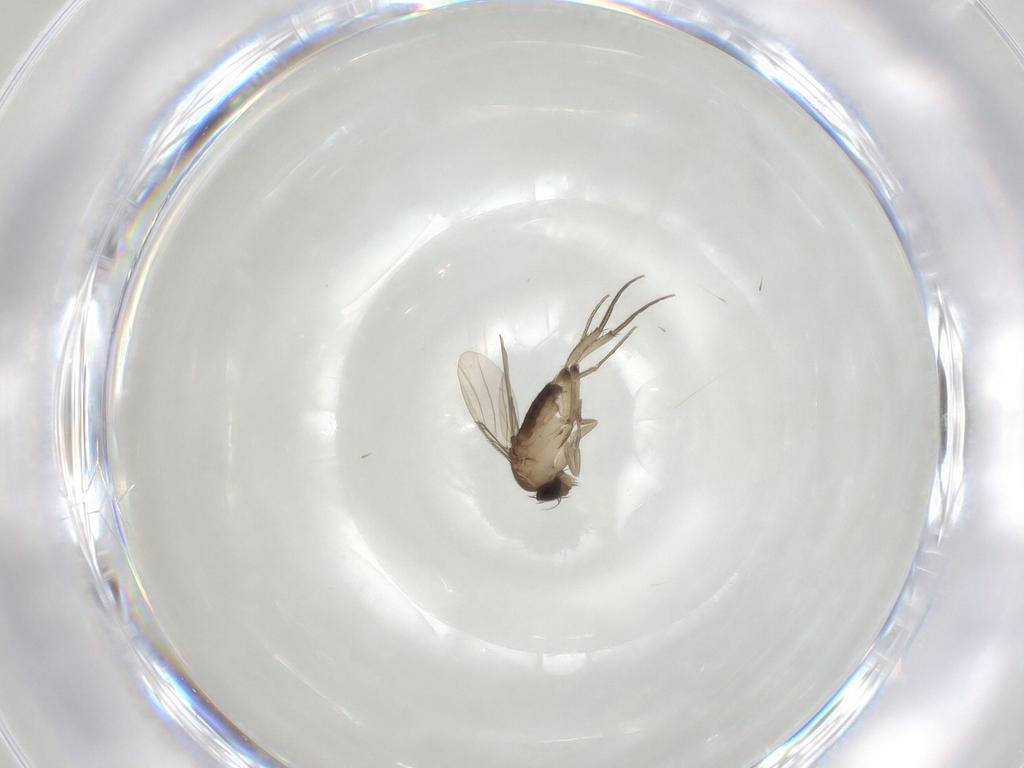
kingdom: Animalia
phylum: Arthropoda
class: Insecta
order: Diptera
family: Phoridae
